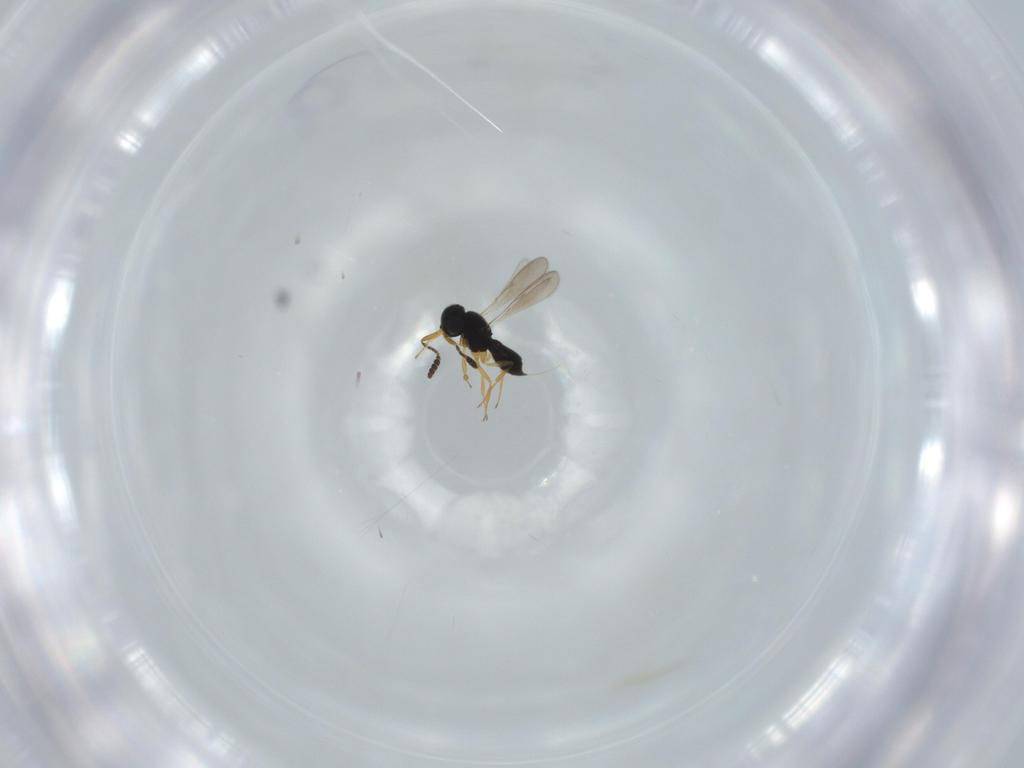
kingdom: Animalia
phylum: Arthropoda
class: Insecta
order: Hymenoptera
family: Scelionidae
